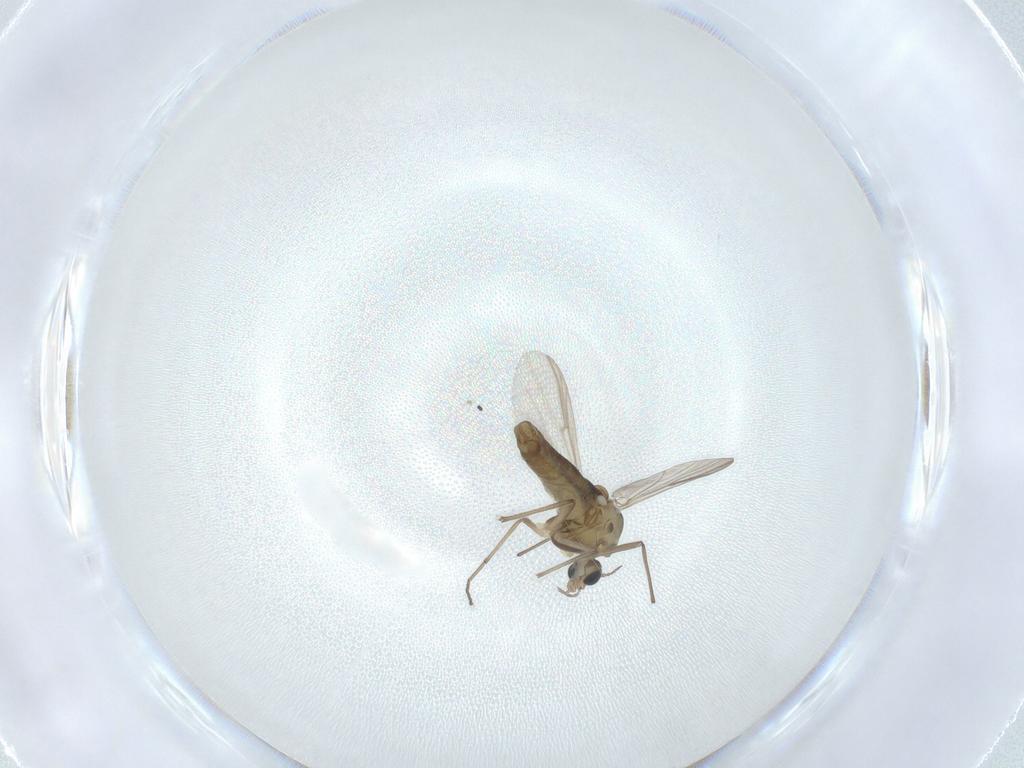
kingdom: Animalia
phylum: Arthropoda
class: Insecta
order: Diptera
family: Chironomidae
